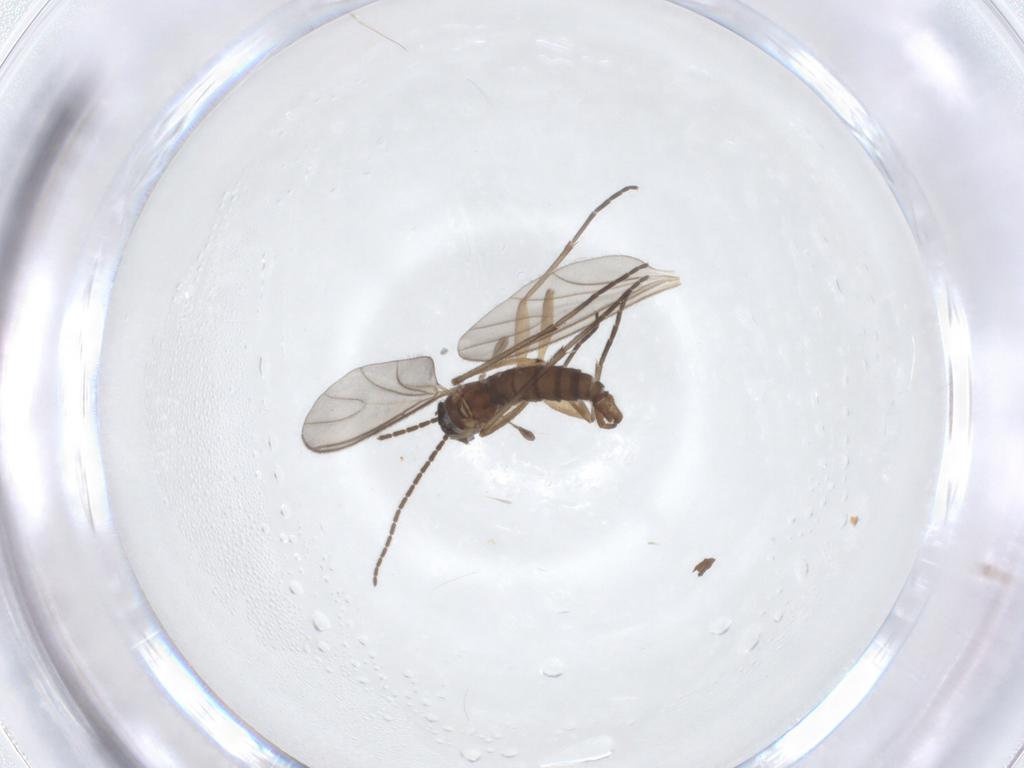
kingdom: Animalia
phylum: Arthropoda
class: Insecta
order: Diptera
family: Sciaridae
